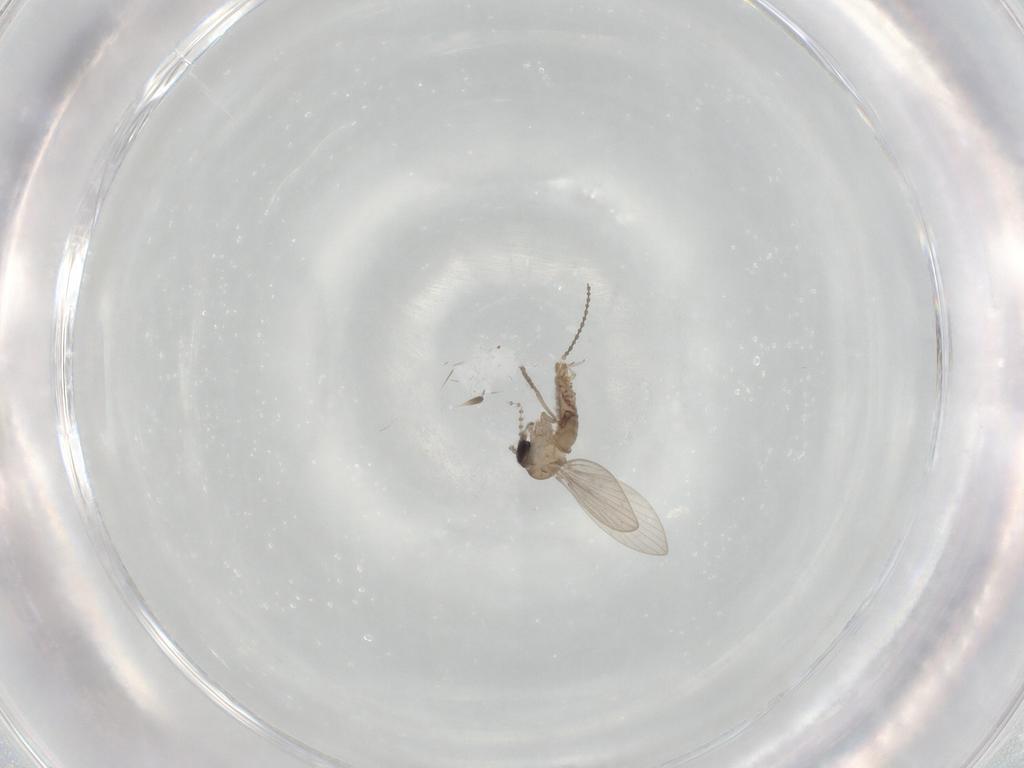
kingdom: Animalia
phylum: Arthropoda
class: Insecta
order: Diptera
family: Psychodidae
